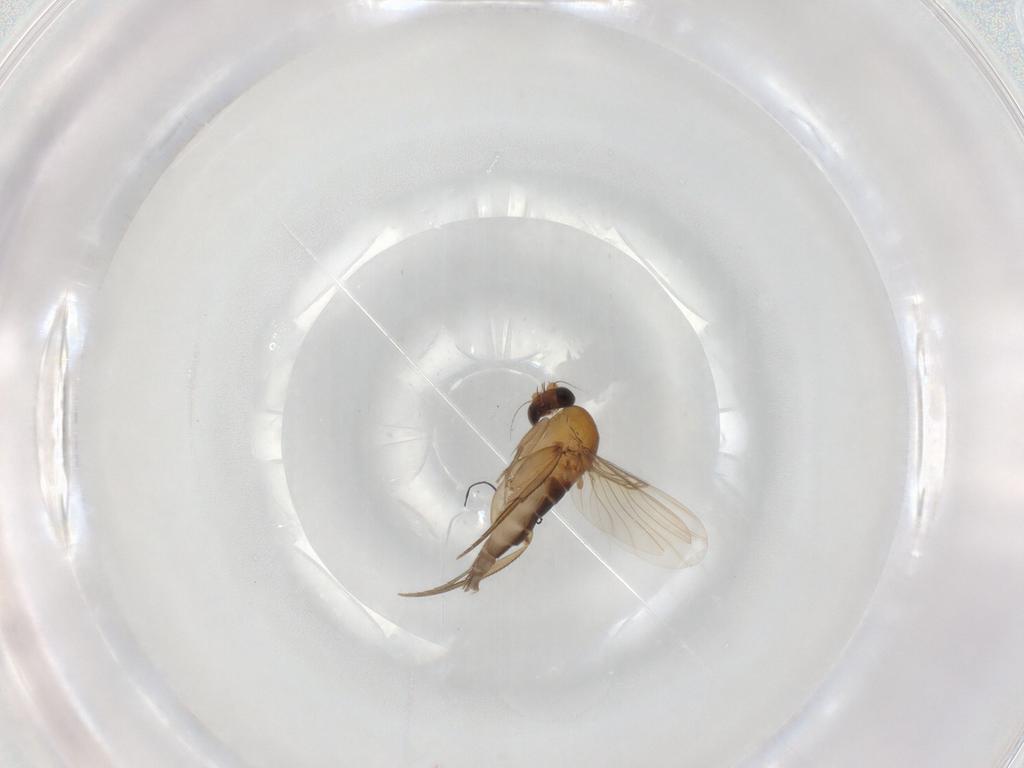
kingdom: Animalia
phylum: Arthropoda
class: Insecta
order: Diptera
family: Phoridae
